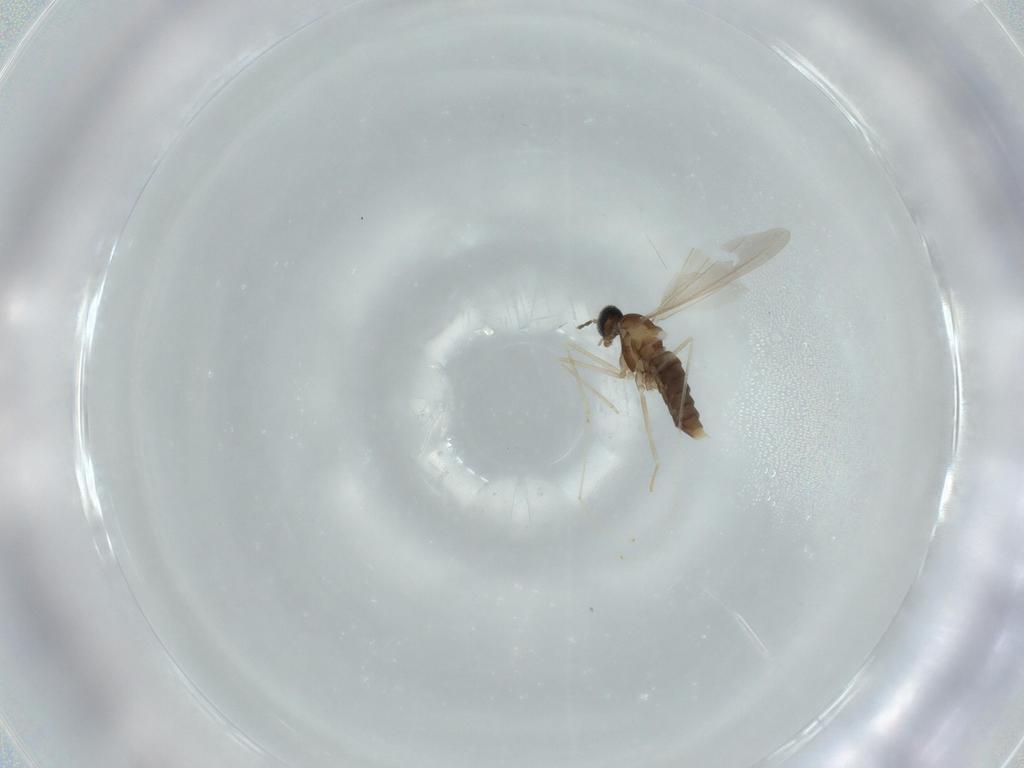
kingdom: Animalia
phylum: Arthropoda
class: Insecta
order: Diptera
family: Cecidomyiidae
